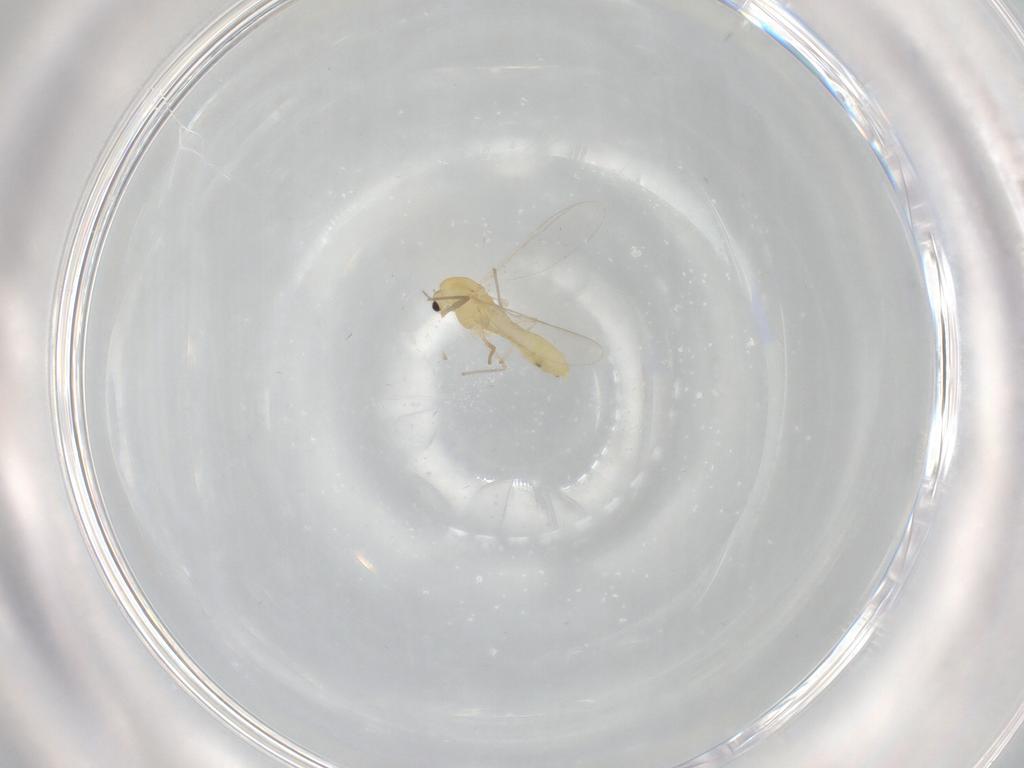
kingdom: Animalia
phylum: Arthropoda
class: Insecta
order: Diptera
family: Chironomidae
